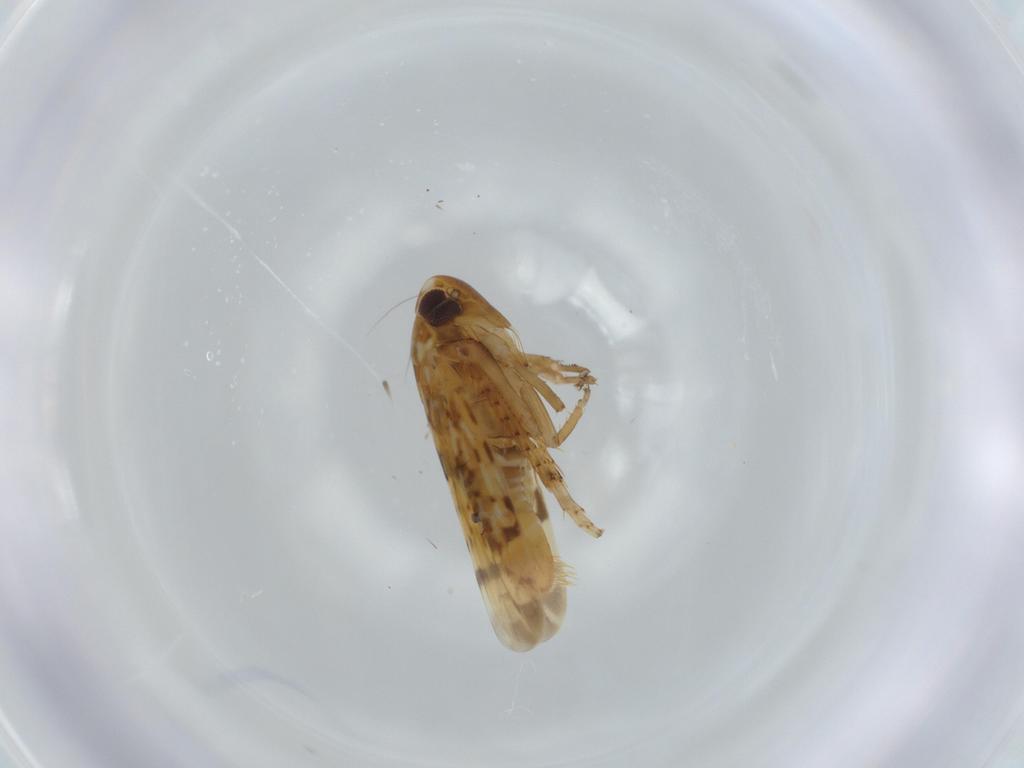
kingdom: Animalia
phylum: Arthropoda
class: Insecta
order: Hemiptera
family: Cicadellidae
